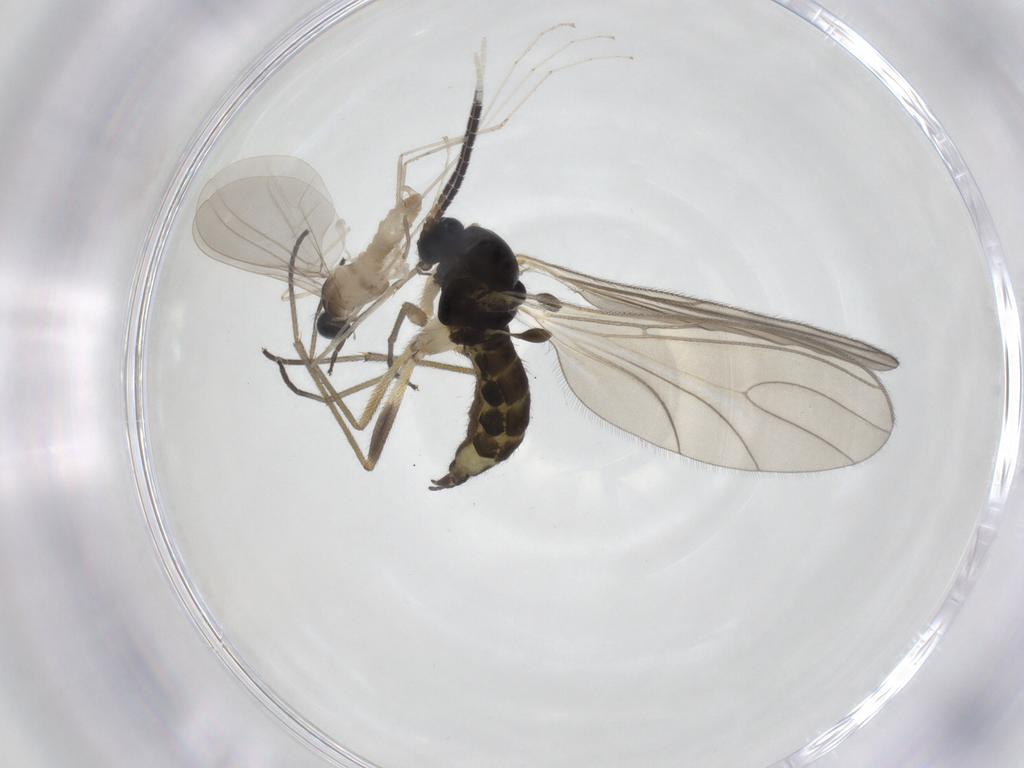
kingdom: Animalia
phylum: Arthropoda
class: Insecta
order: Diptera
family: Sciaridae
